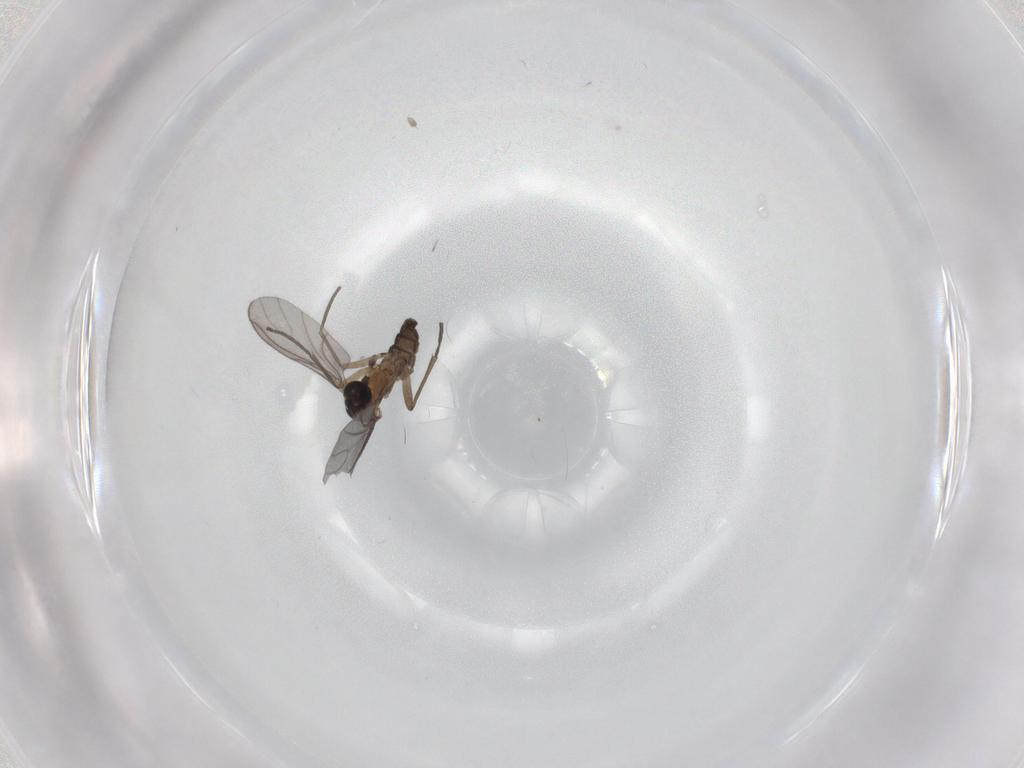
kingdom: Animalia
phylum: Arthropoda
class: Insecta
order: Diptera
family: Sciaridae
